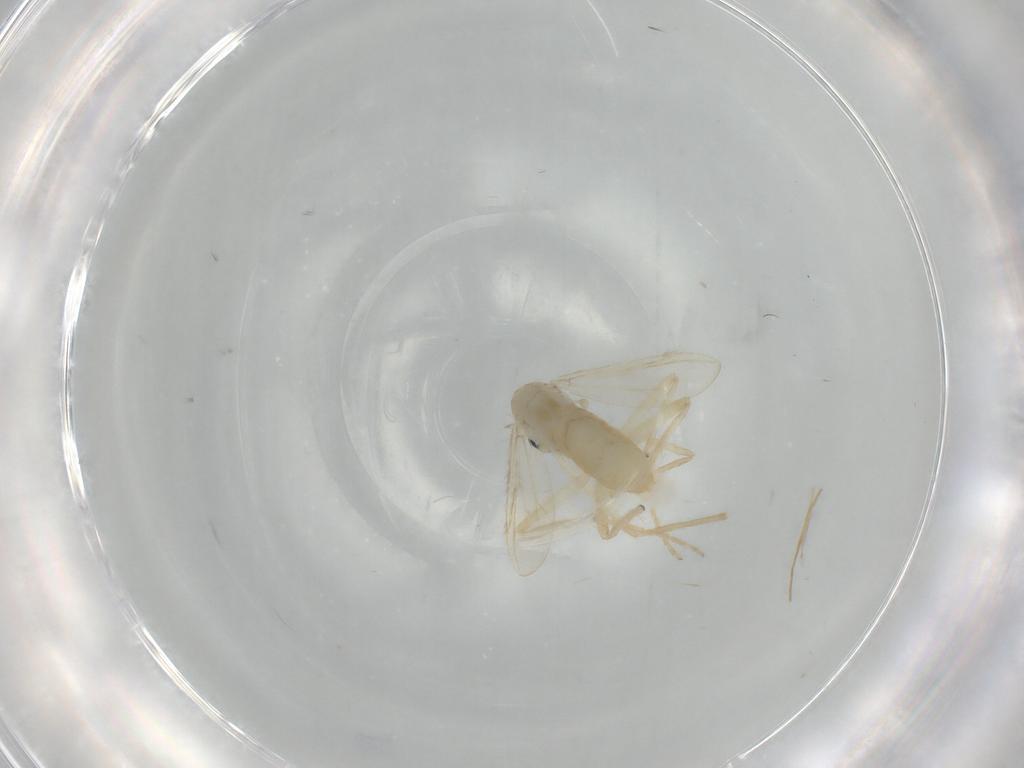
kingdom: Animalia
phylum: Arthropoda
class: Insecta
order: Diptera
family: Chironomidae
